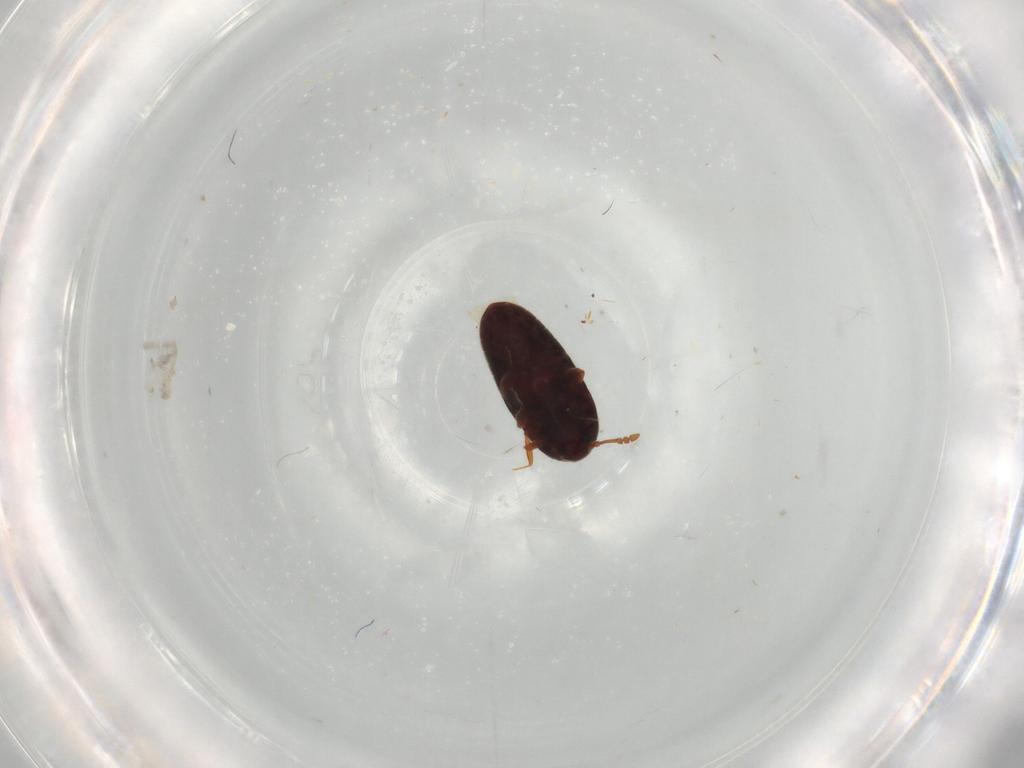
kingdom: Animalia
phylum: Arthropoda
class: Insecta
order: Coleoptera
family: Throscidae
